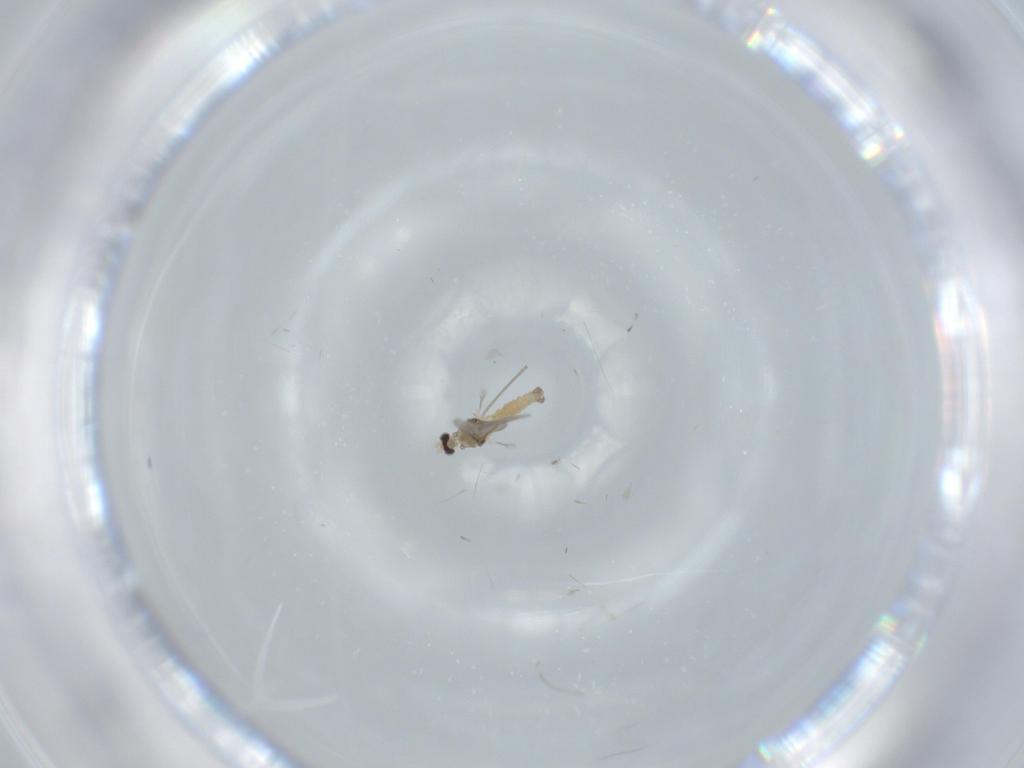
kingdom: Animalia
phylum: Arthropoda
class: Insecta
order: Diptera
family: Cecidomyiidae
